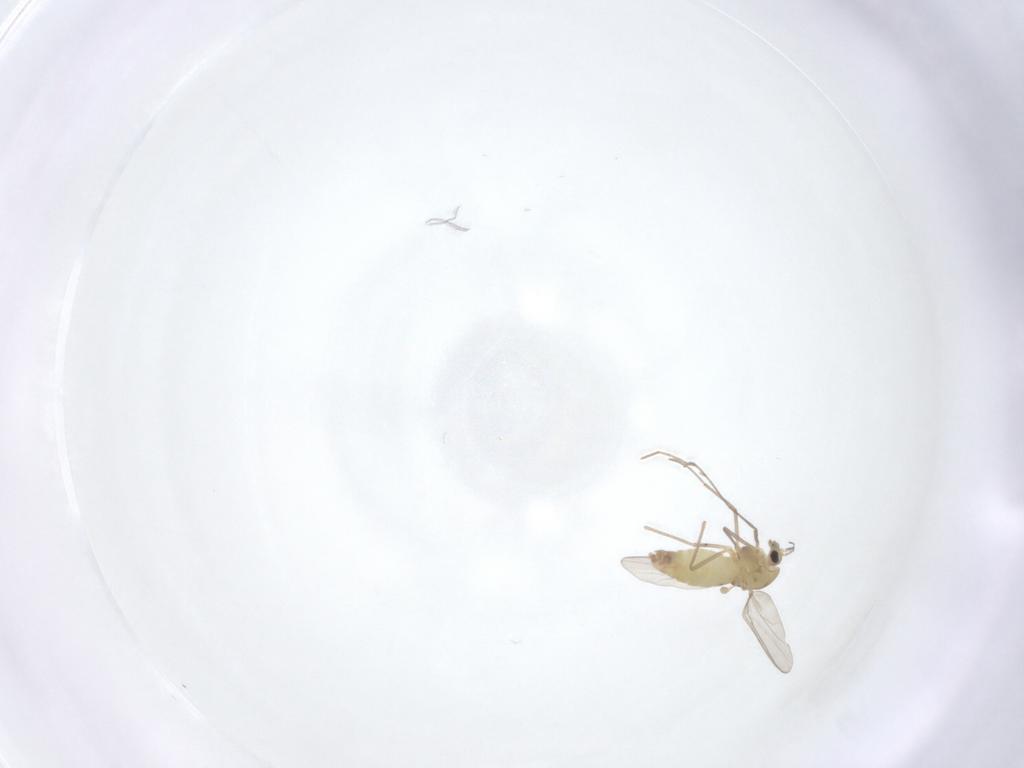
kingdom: Animalia
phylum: Arthropoda
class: Insecta
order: Diptera
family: Chironomidae
